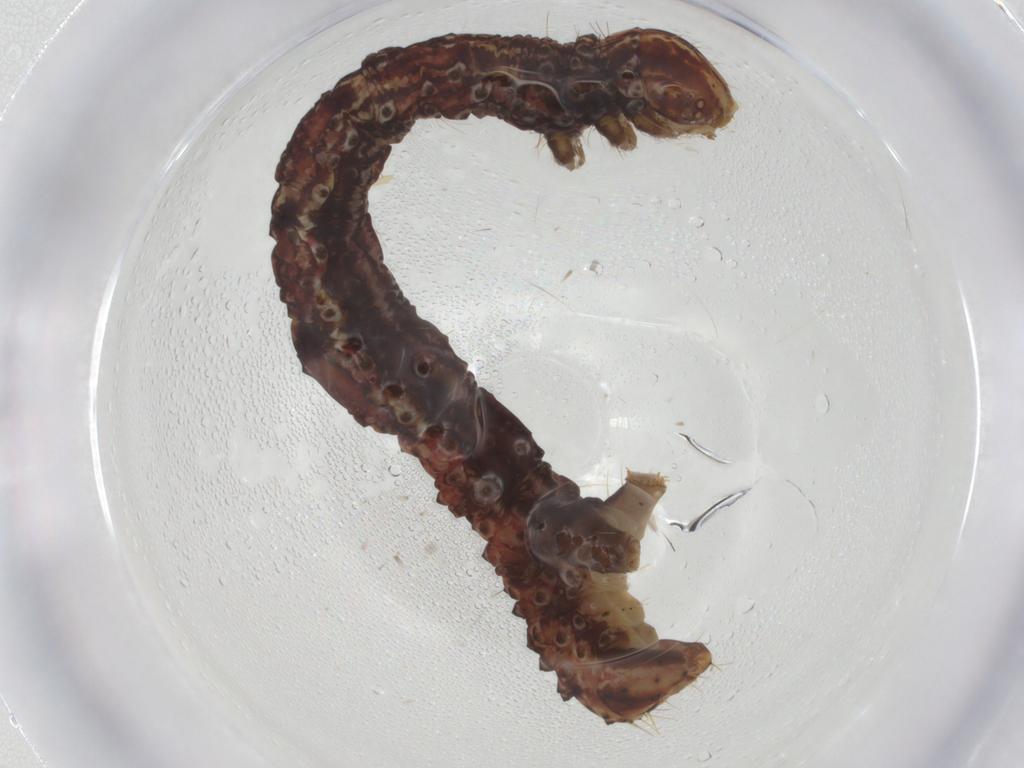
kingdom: Animalia
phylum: Arthropoda
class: Insecta
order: Lepidoptera
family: Geometridae
